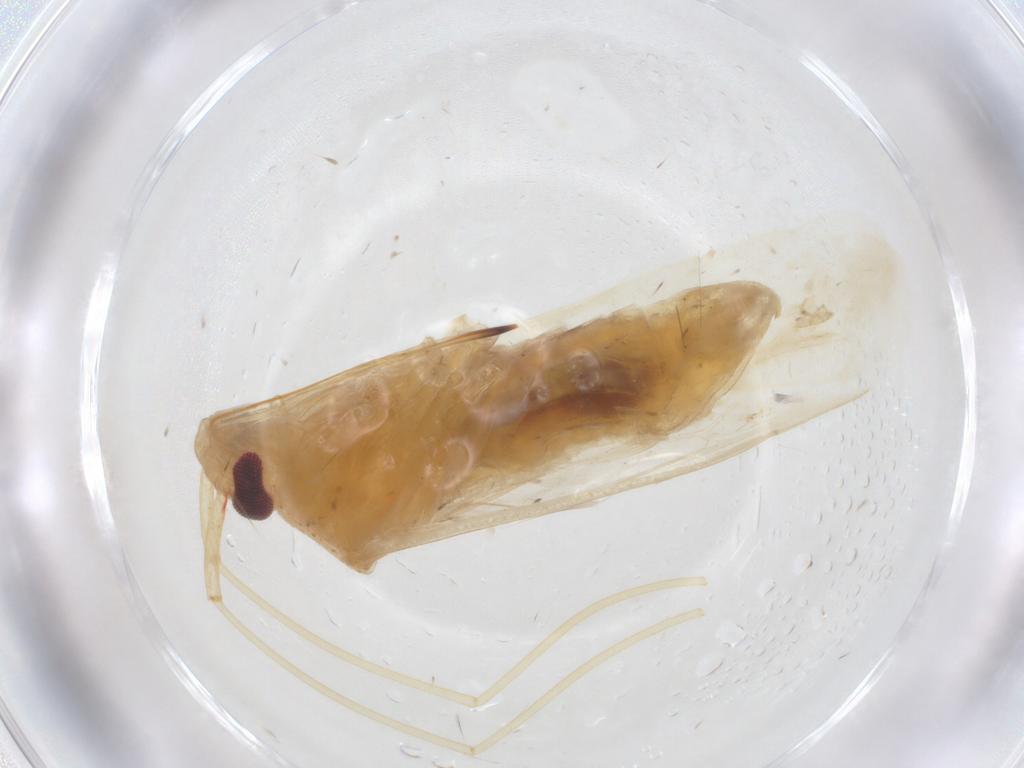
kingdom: Animalia
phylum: Arthropoda
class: Insecta
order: Hemiptera
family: Cicadellidae
